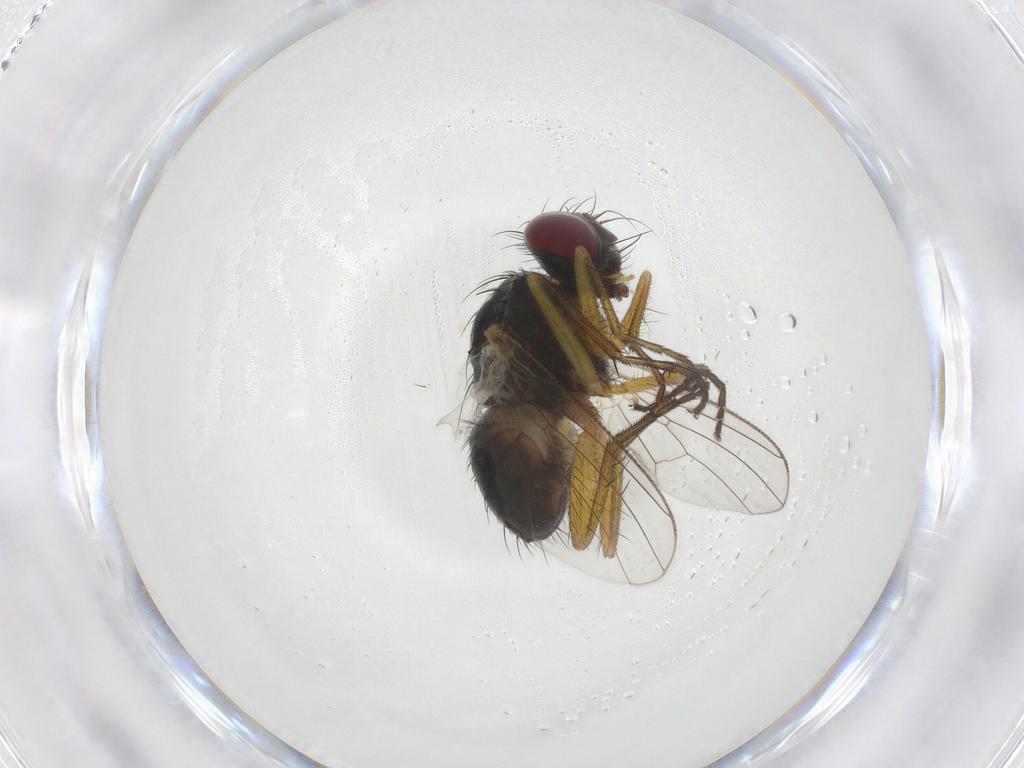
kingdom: Animalia
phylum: Arthropoda
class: Insecta
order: Diptera
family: Muscidae
